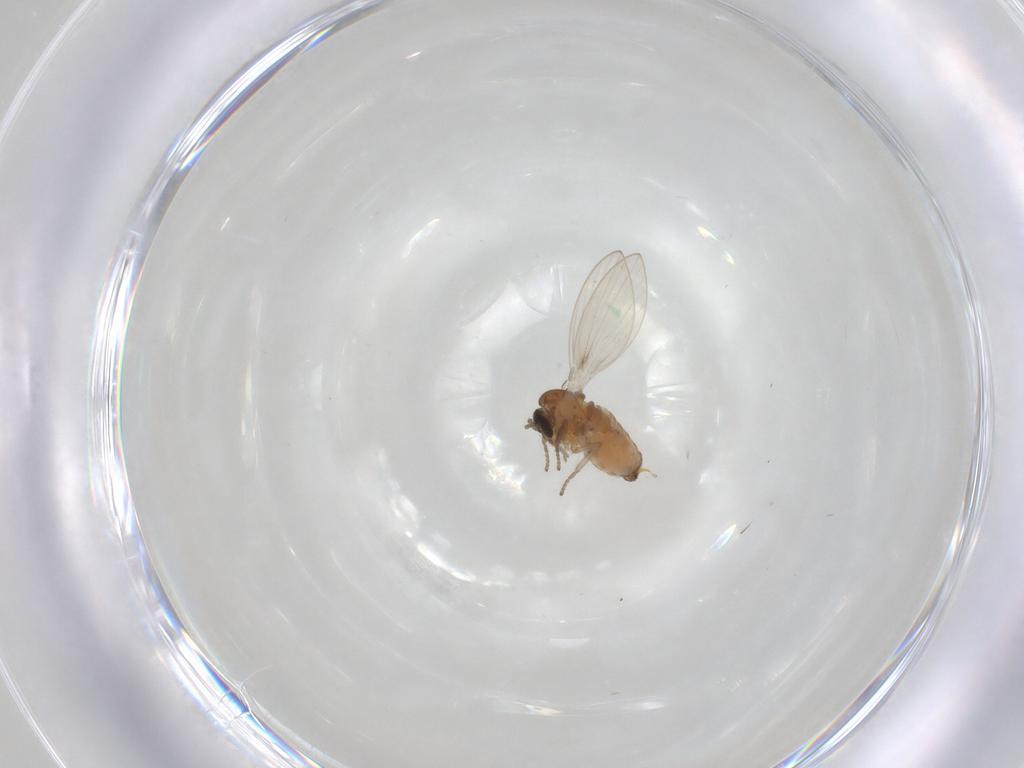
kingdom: Animalia
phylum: Arthropoda
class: Insecta
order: Diptera
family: Psychodidae
